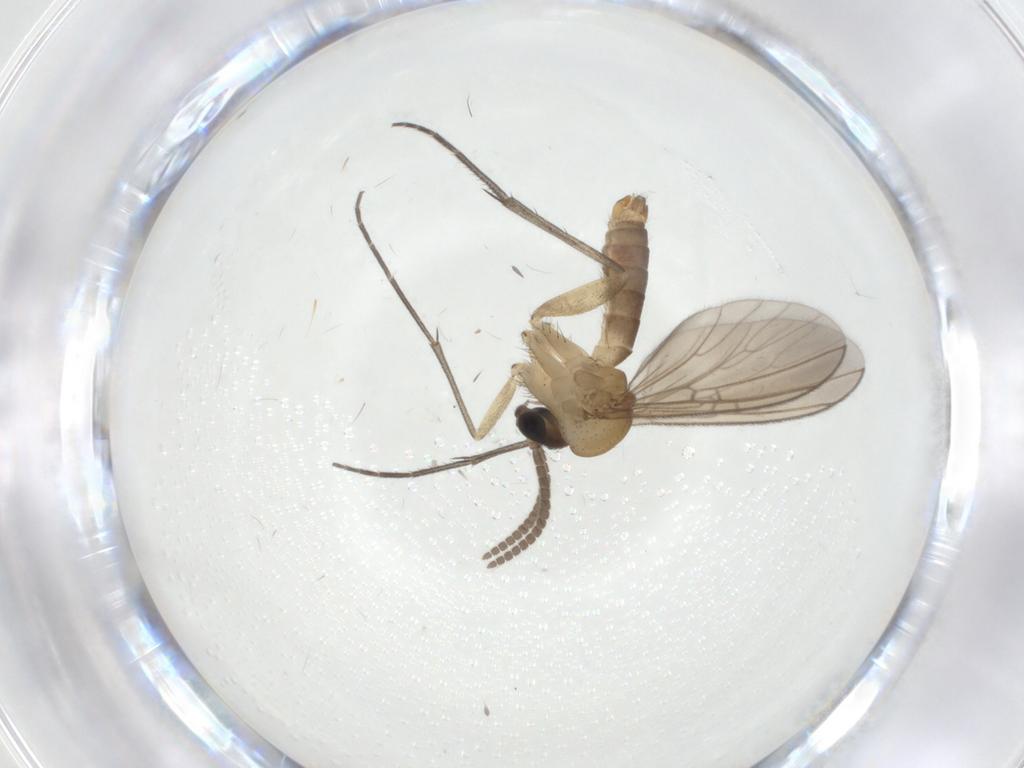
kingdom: Animalia
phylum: Arthropoda
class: Insecta
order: Diptera
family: Mycetophilidae
